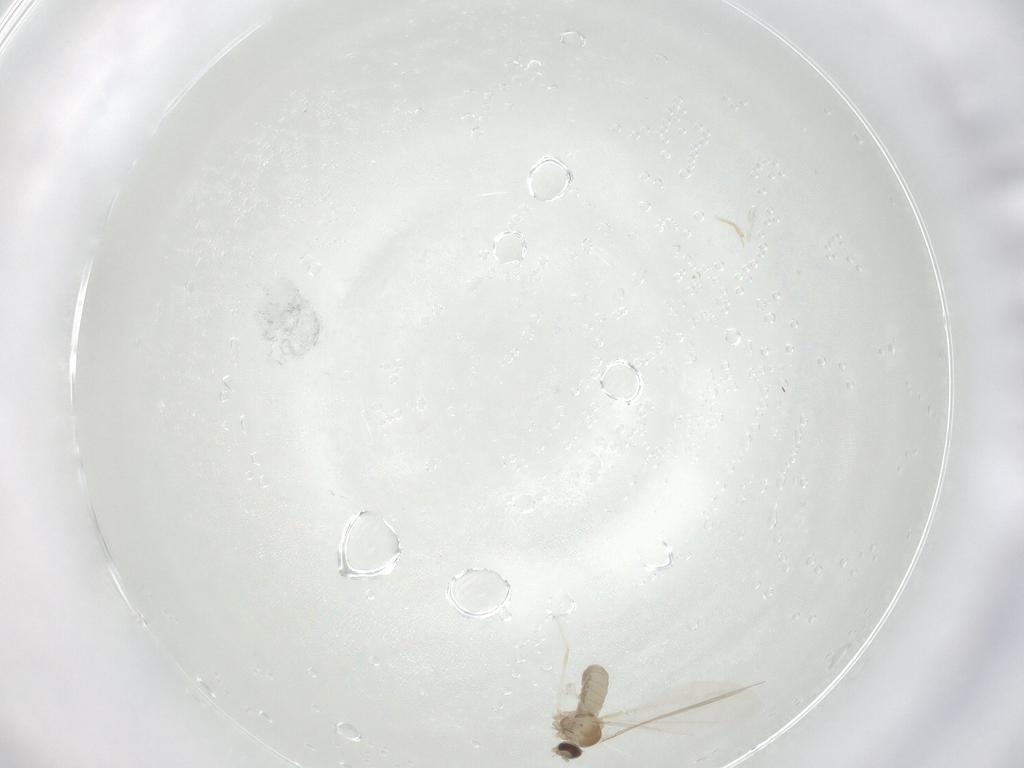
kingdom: Animalia
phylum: Arthropoda
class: Insecta
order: Diptera
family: Cecidomyiidae
